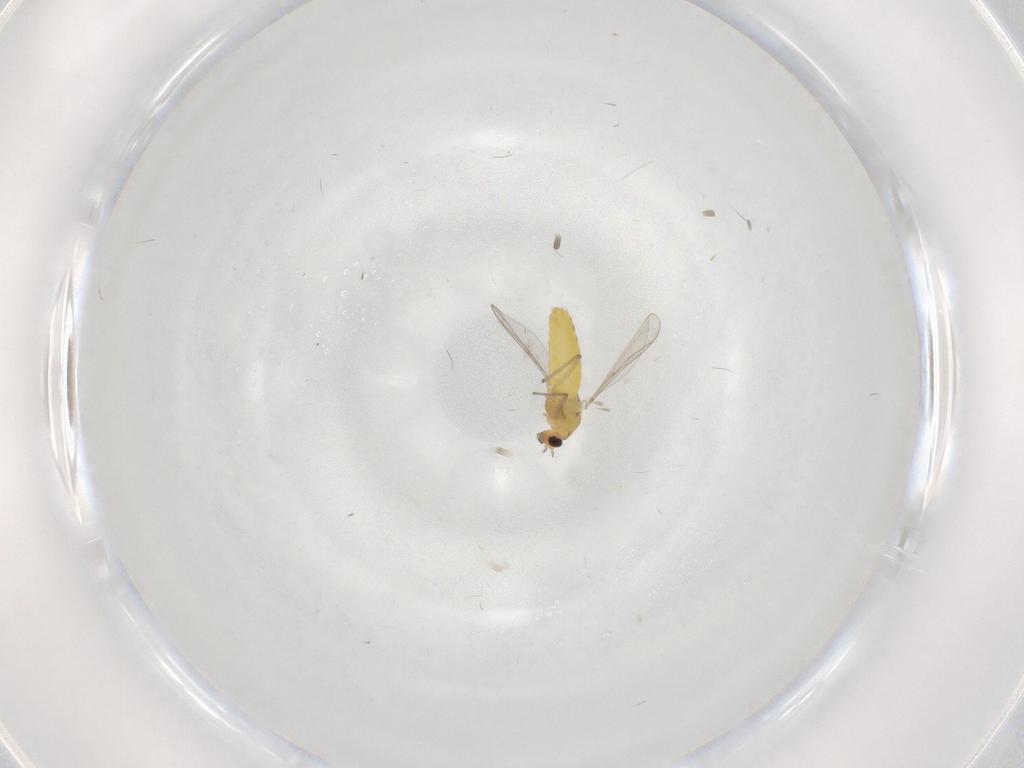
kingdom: Animalia
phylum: Arthropoda
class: Insecta
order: Diptera
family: Chironomidae
